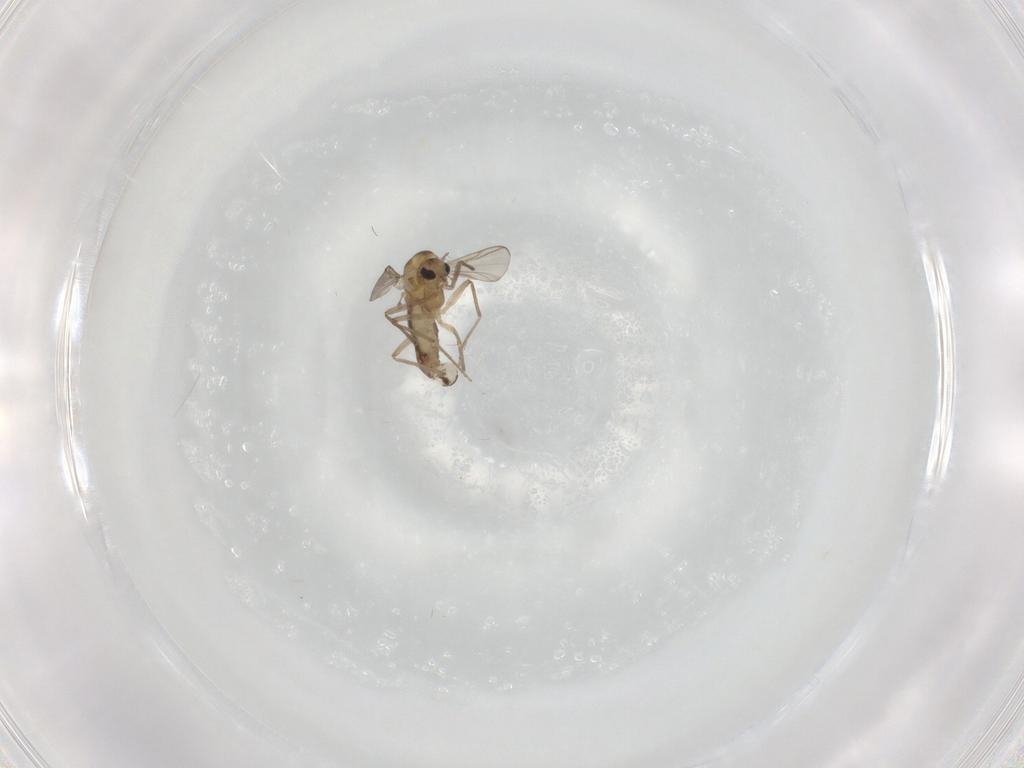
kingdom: Animalia
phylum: Arthropoda
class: Insecta
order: Diptera
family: Chironomidae
